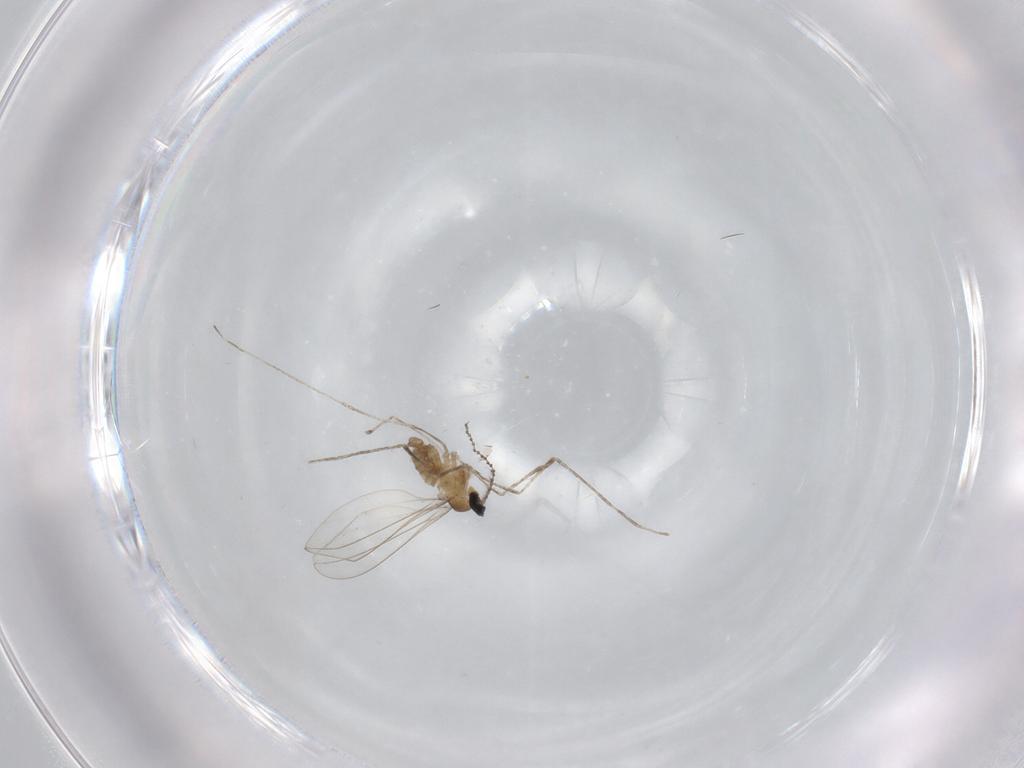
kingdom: Animalia
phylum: Arthropoda
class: Insecta
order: Diptera
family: Cecidomyiidae
